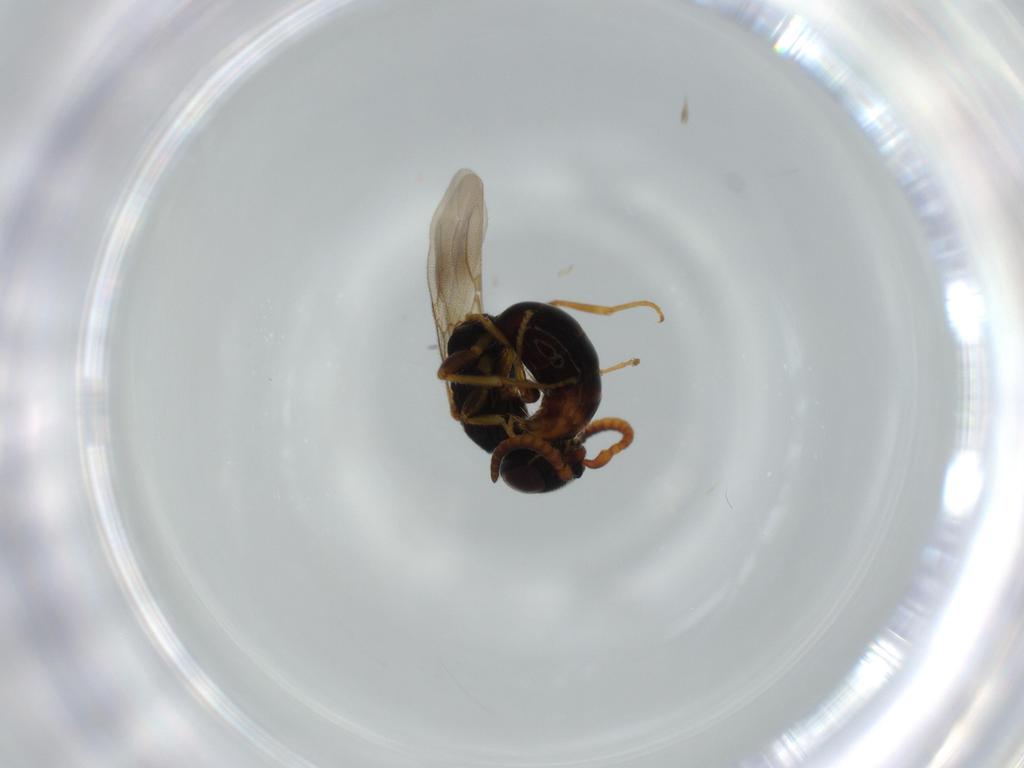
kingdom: Animalia
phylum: Arthropoda
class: Insecta
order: Hymenoptera
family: Bethylidae
